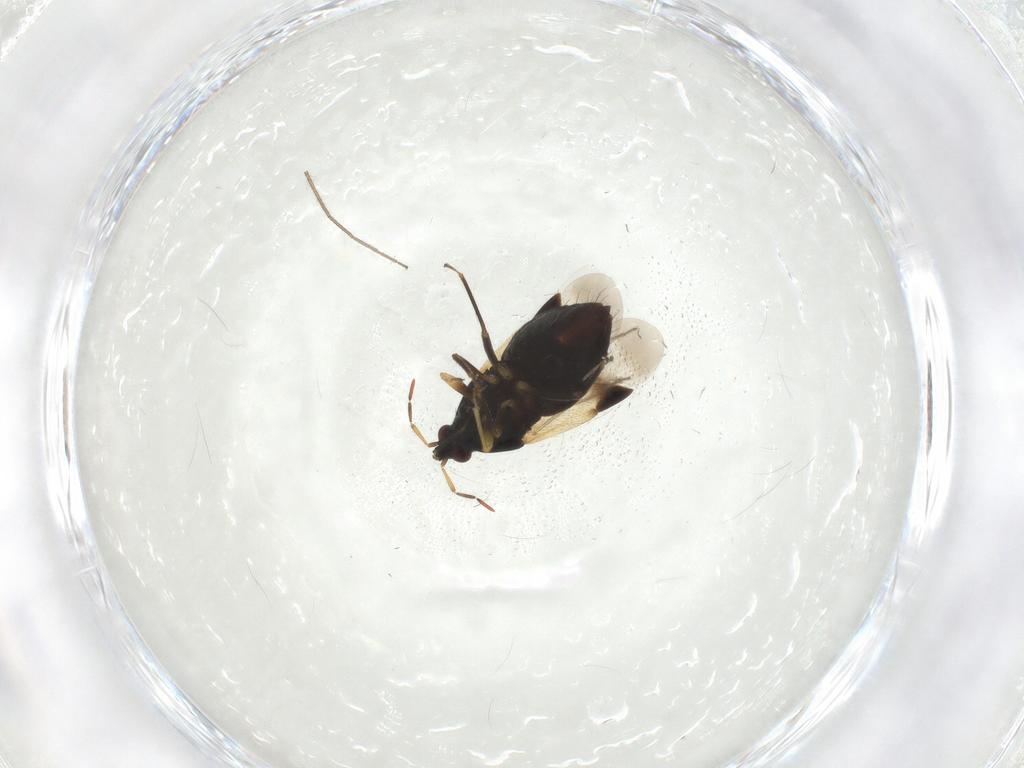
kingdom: Animalia
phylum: Arthropoda
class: Insecta
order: Hemiptera
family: Anthocoridae
